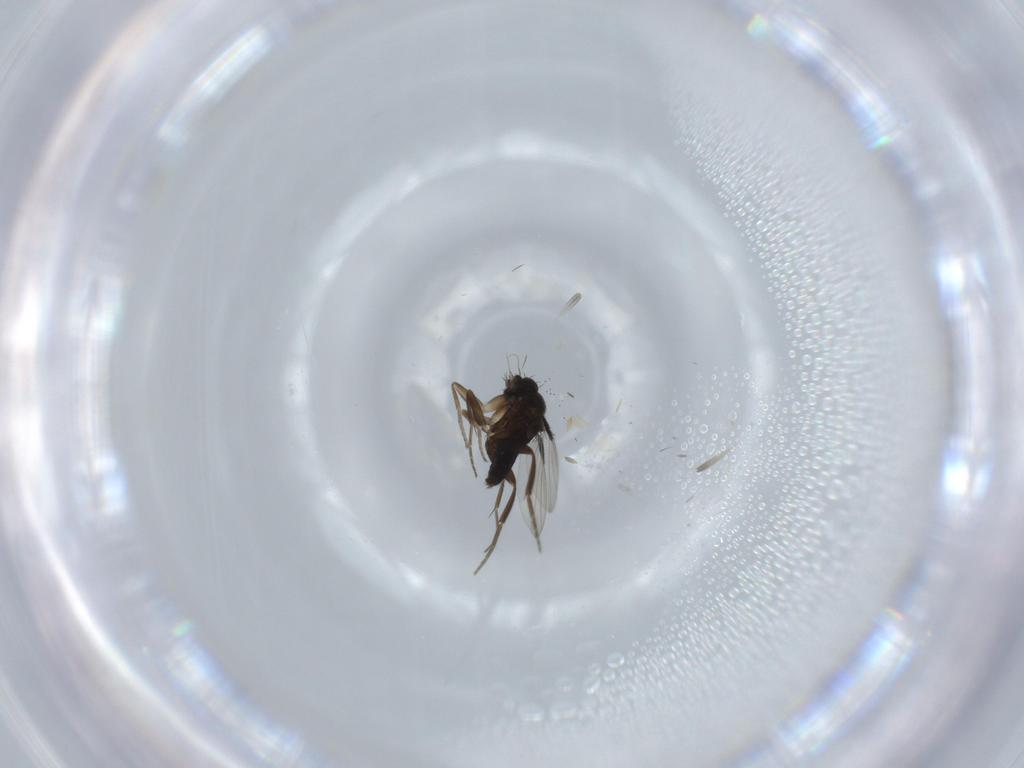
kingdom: Animalia
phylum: Arthropoda
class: Insecta
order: Diptera
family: Phoridae
